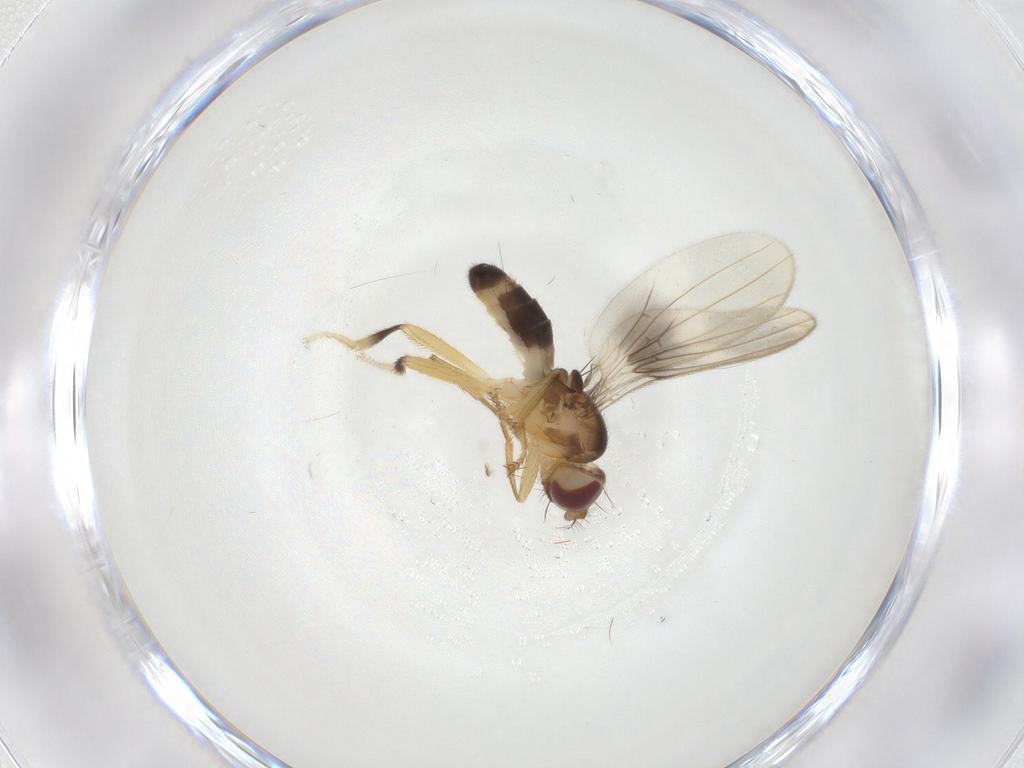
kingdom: Animalia
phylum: Arthropoda
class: Insecta
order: Diptera
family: Periscelididae
